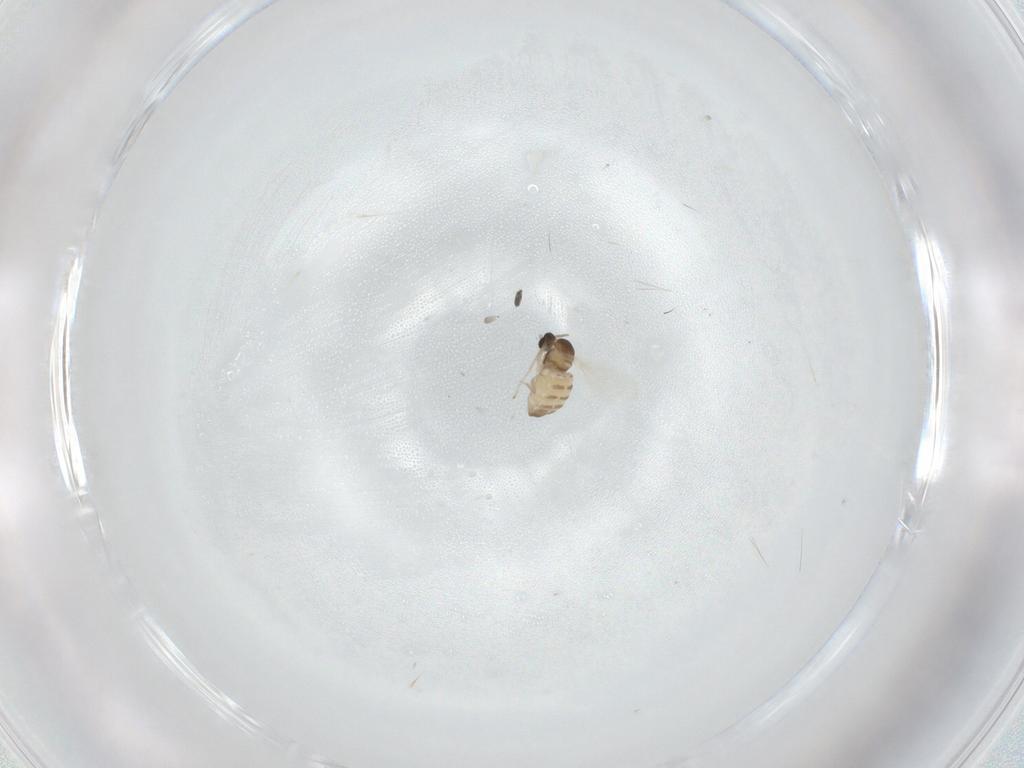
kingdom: Animalia
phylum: Arthropoda
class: Insecta
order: Diptera
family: Cecidomyiidae
